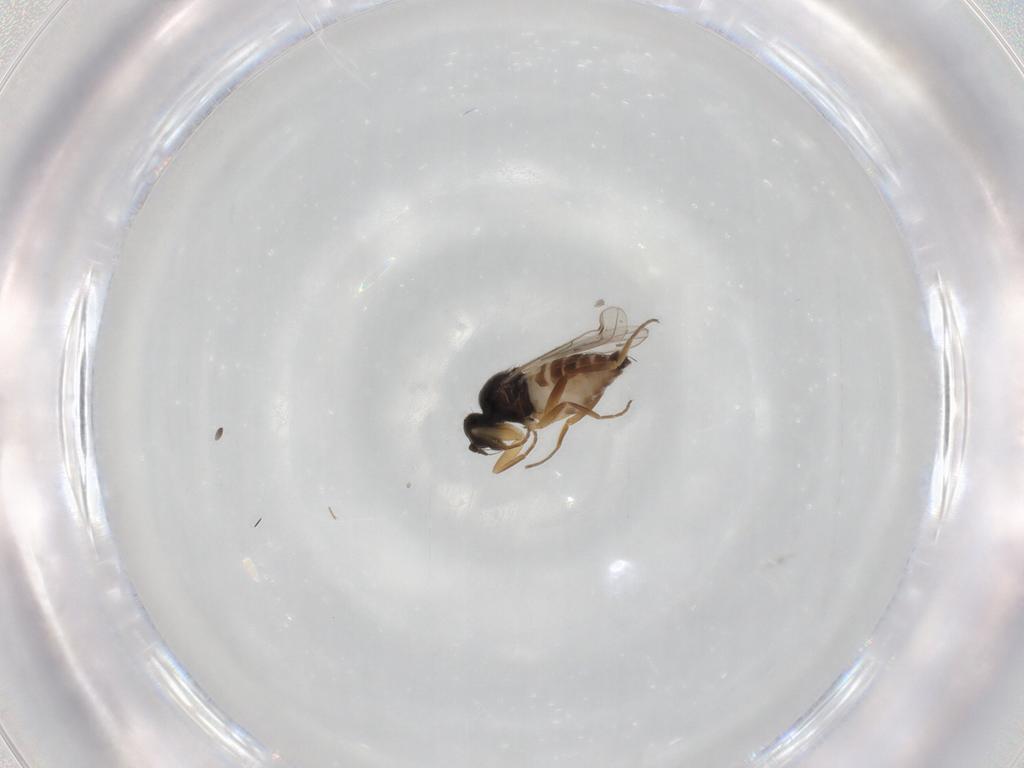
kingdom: Animalia
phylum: Arthropoda
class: Insecta
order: Diptera
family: Hybotidae
